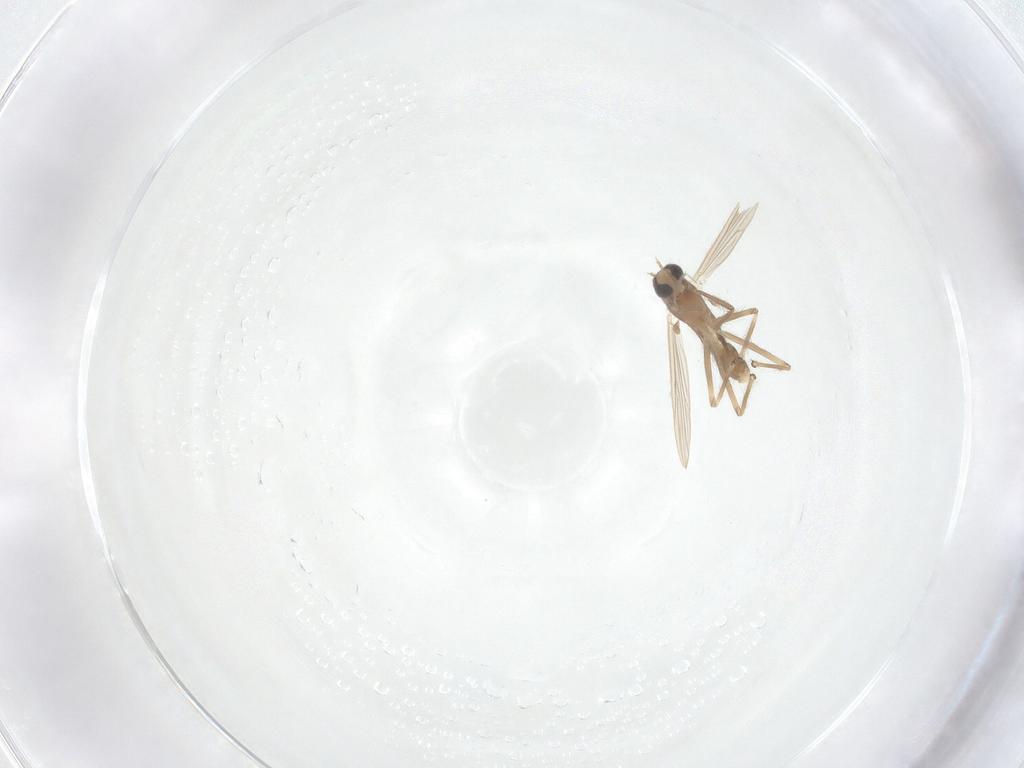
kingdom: Animalia
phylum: Arthropoda
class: Insecta
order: Diptera
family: Chironomidae
